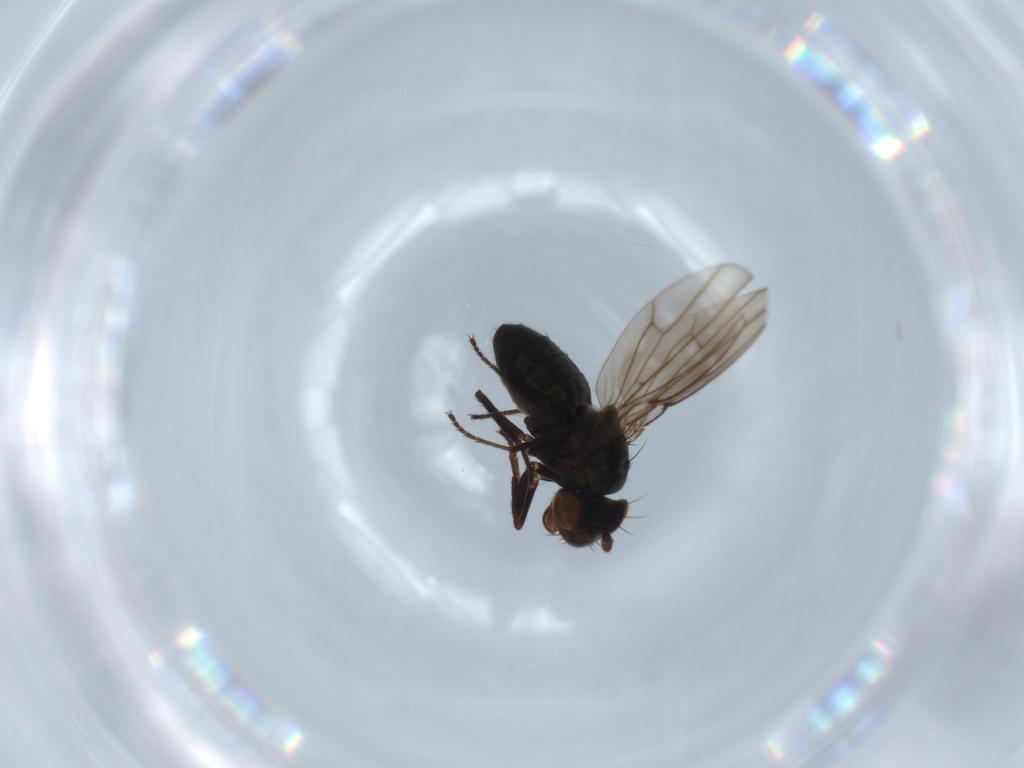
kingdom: Animalia
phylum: Arthropoda
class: Insecta
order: Diptera
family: Ephydridae
